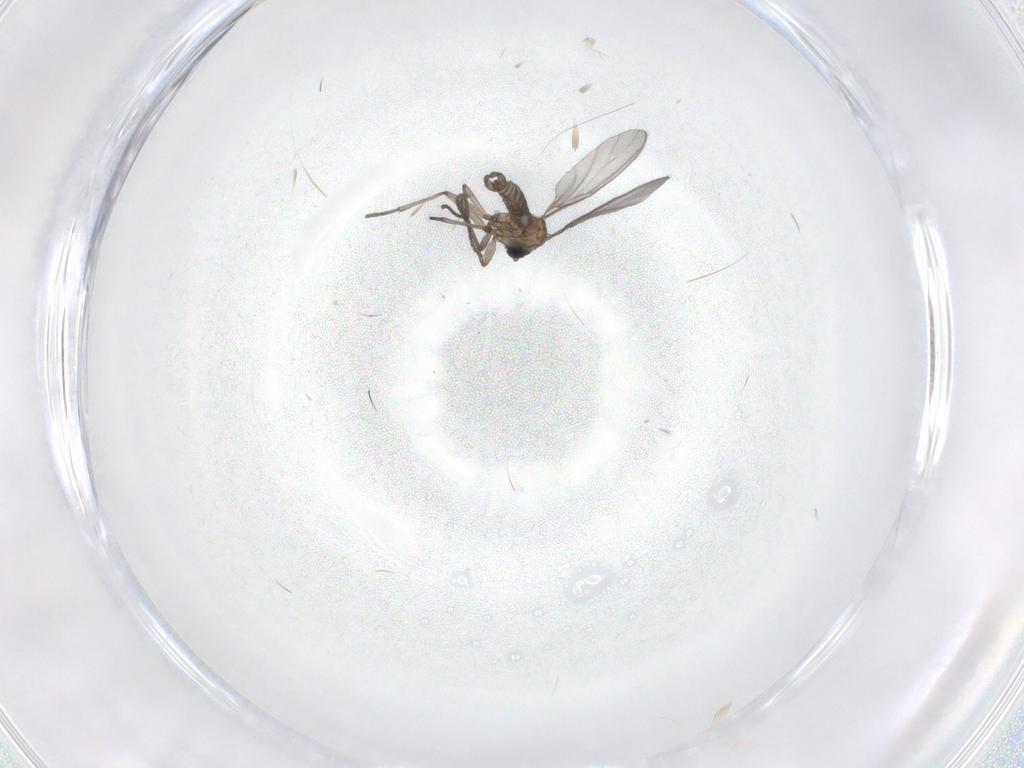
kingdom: Animalia
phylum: Arthropoda
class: Insecta
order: Diptera
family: Sciaridae
